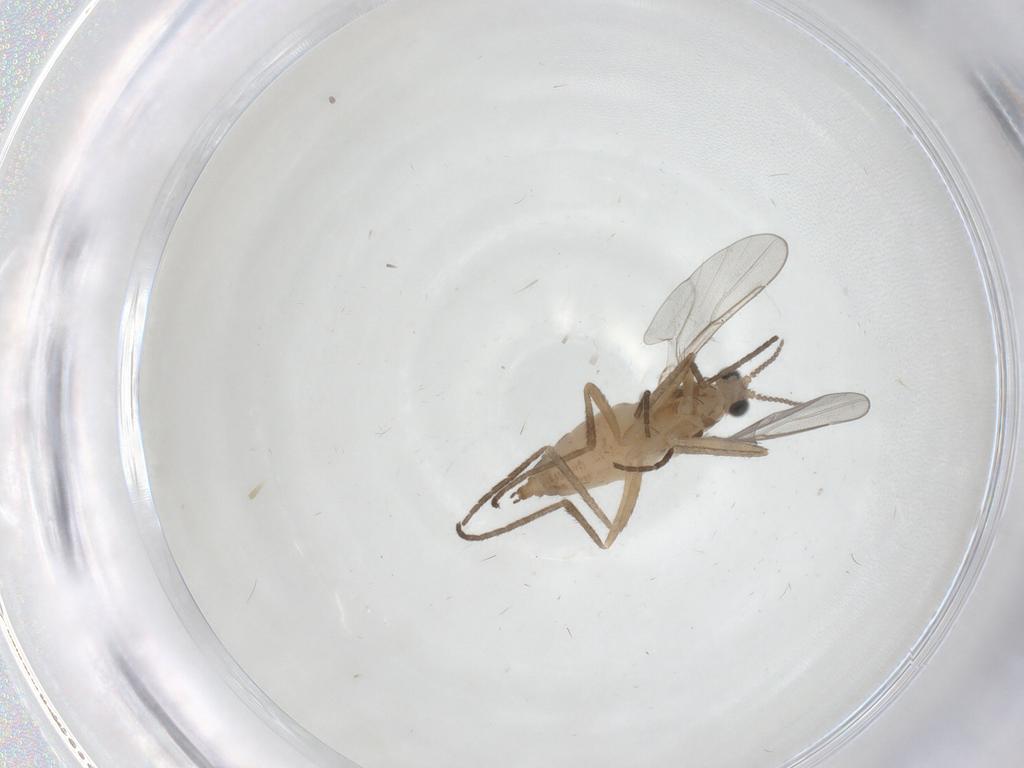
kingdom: Animalia
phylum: Arthropoda
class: Insecta
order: Diptera
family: Cecidomyiidae
